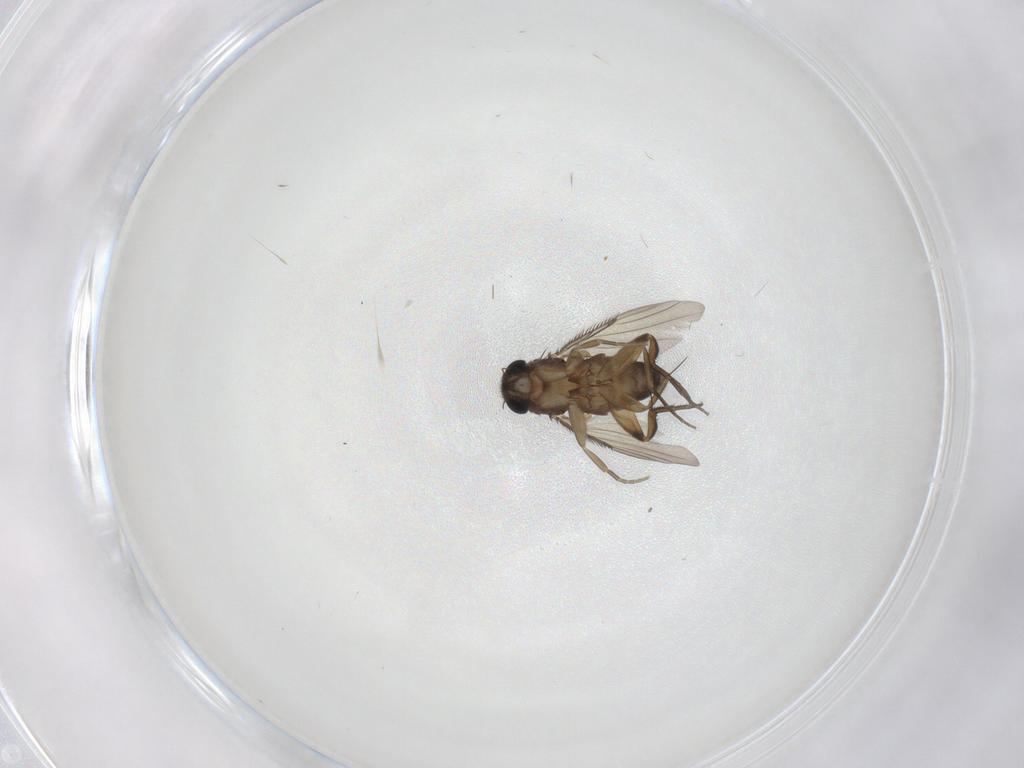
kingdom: Animalia
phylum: Arthropoda
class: Insecta
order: Diptera
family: Phoridae
